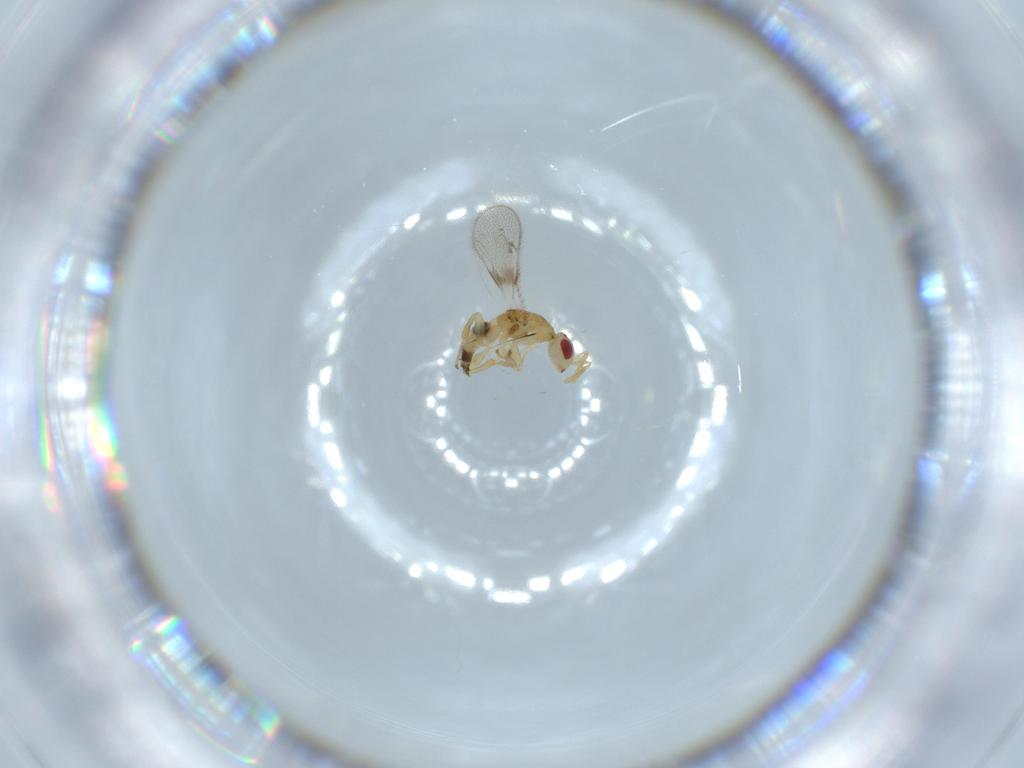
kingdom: Animalia
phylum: Arthropoda
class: Insecta
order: Hymenoptera
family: Torymidae
